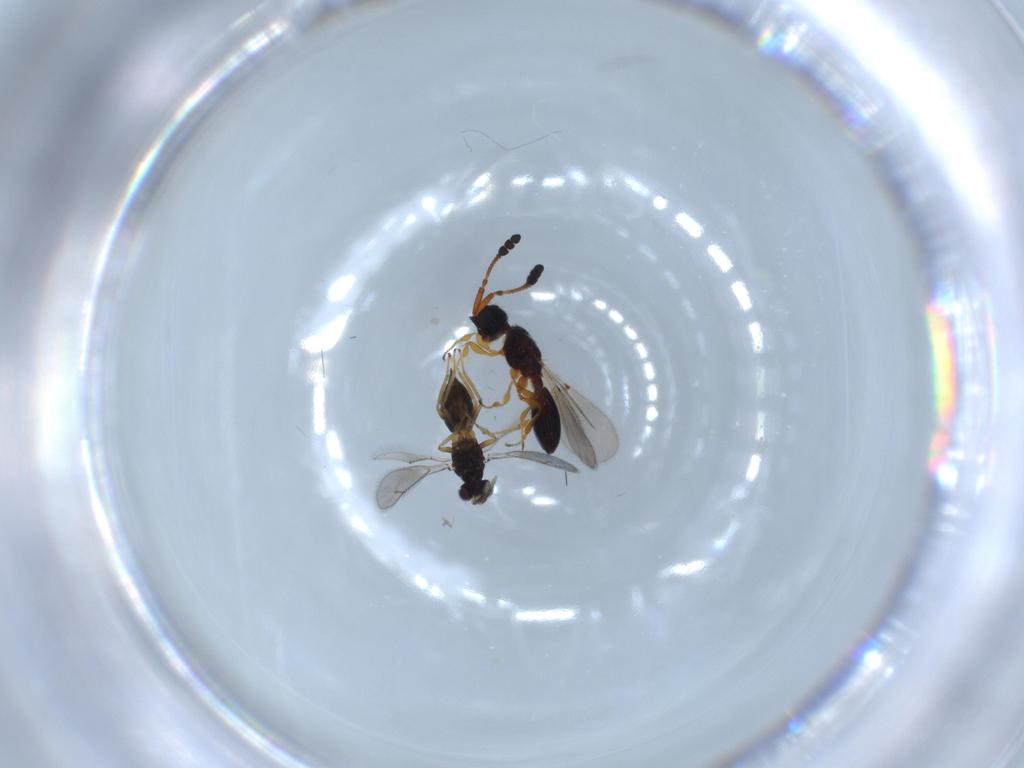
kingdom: Animalia
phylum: Arthropoda
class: Insecta
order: Hymenoptera
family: Diapriidae
